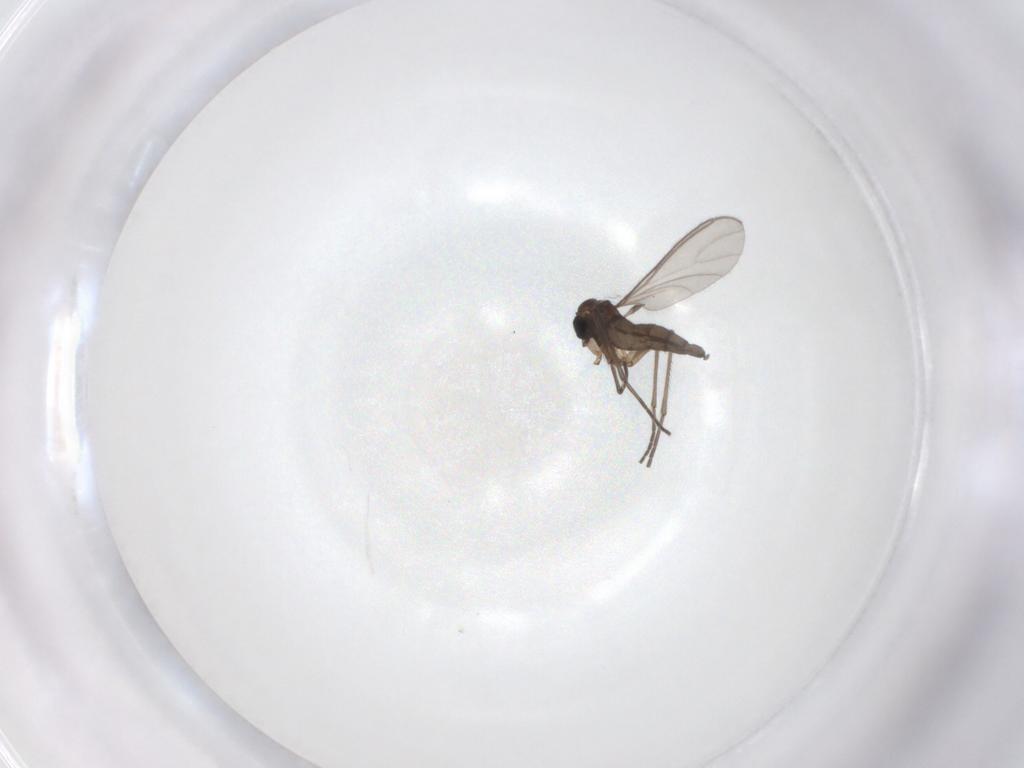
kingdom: Animalia
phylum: Arthropoda
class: Insecta
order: Diptera
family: Sciaridae
